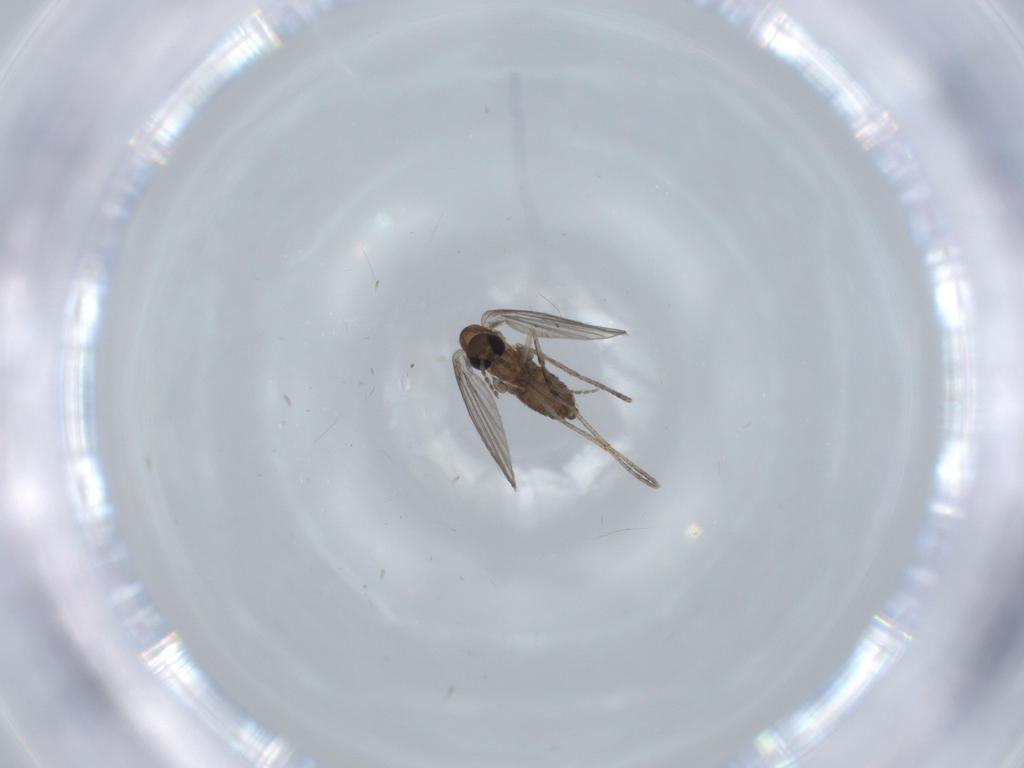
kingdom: Animalia
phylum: Arthropoda
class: Insecta
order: Diptera
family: Psychodidae
